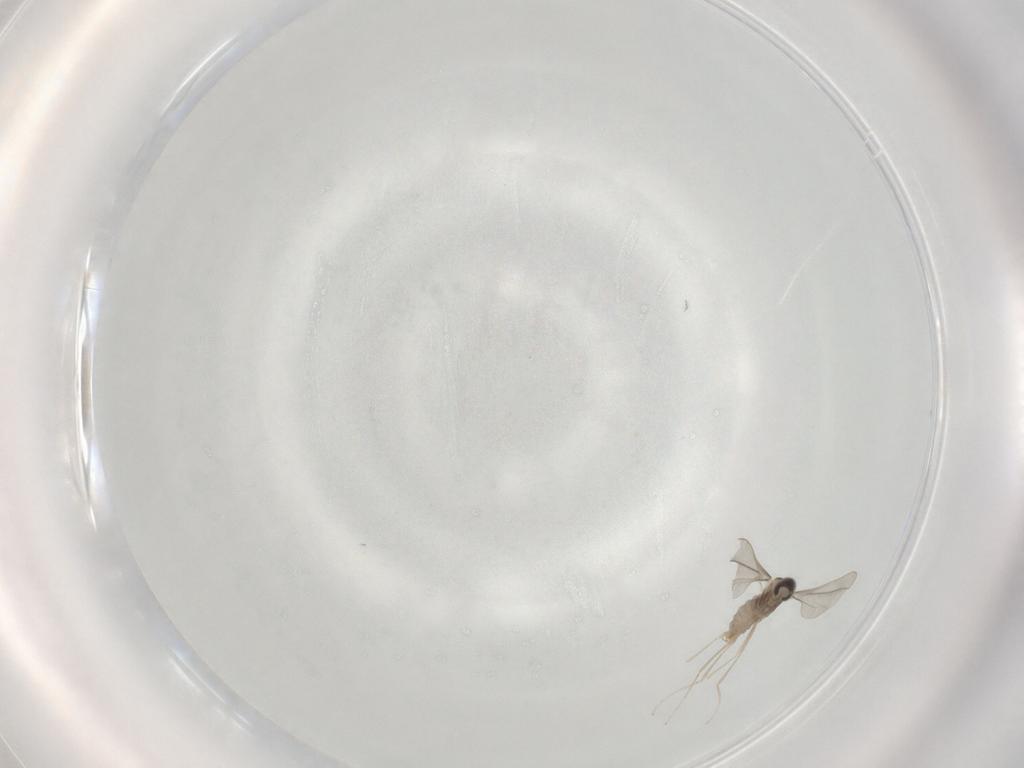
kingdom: Animalia
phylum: Arthropoda
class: Insecta
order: Diptera
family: Cecidomyiidae
